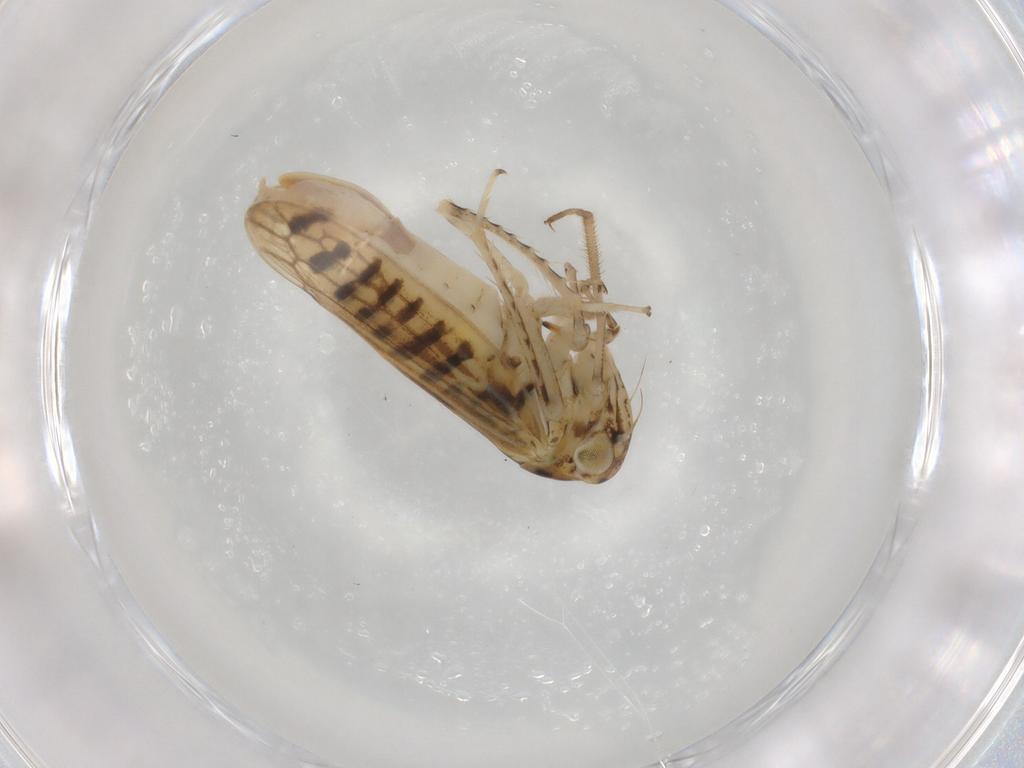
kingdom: Animalia
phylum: Arthropoda
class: Insecta
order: Hemiptera
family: Cicadellidae
